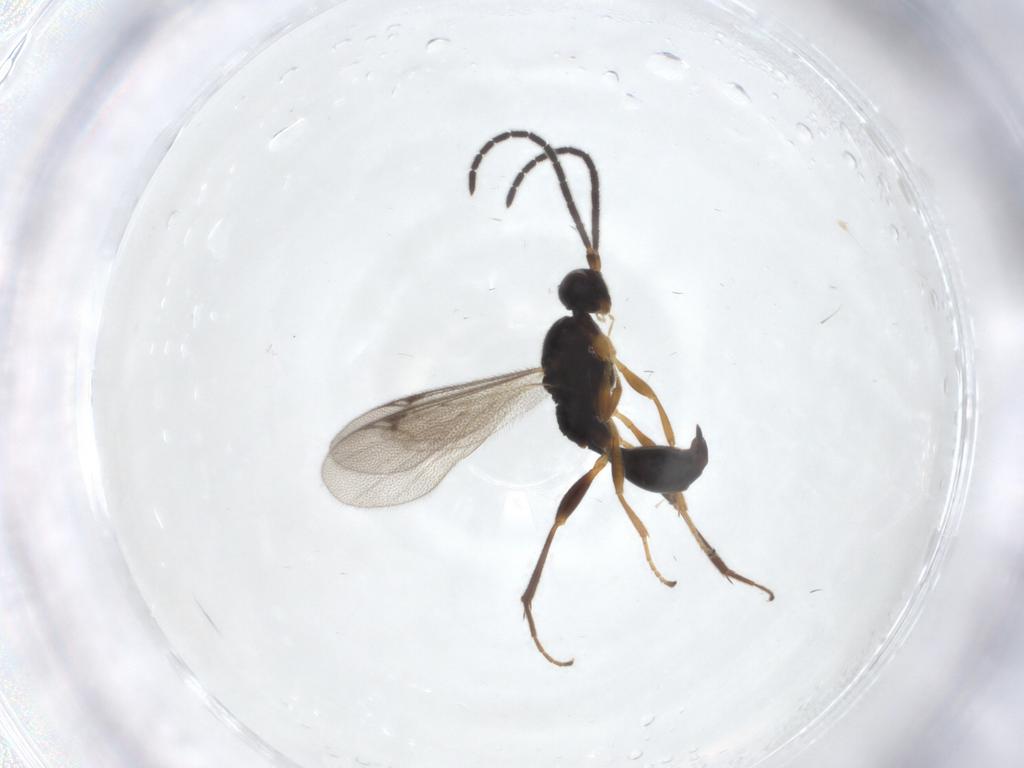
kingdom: Animalia
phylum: Arthropoda
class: Insecta
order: Hymenoptera
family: Proctotrupidae
